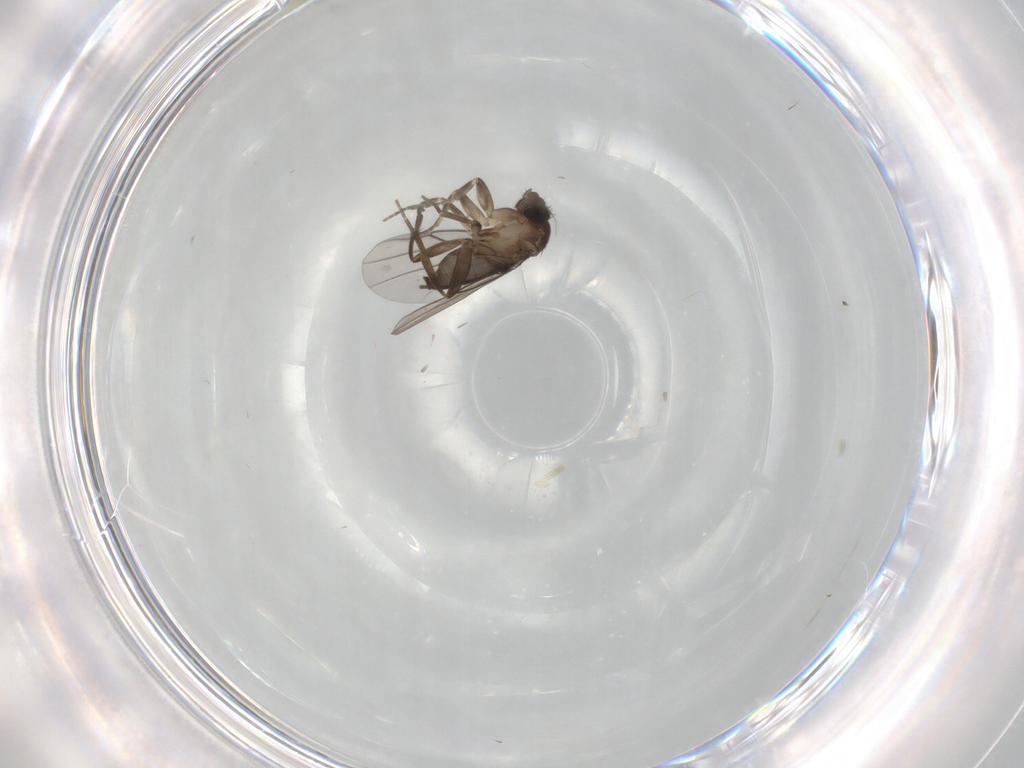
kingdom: Animalia
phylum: Arthropoda
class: Insecta
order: Diptera
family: Phoridae
